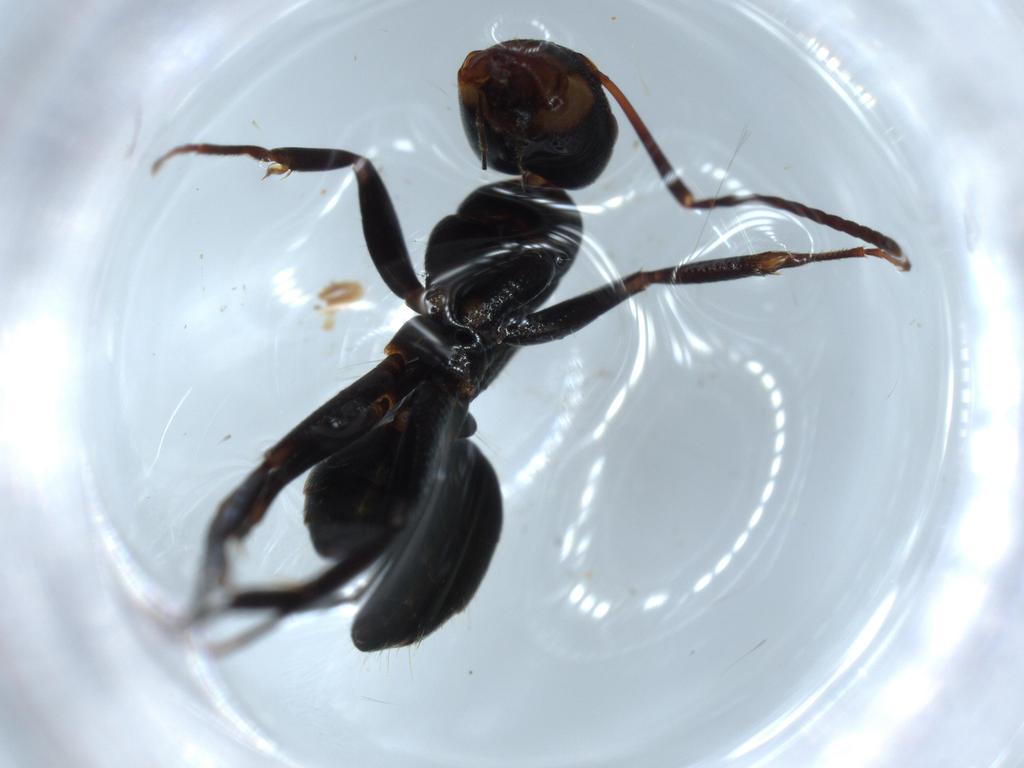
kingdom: Animalia
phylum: Arthropoda
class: Insecta
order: Hymenoptera
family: Formicidae
